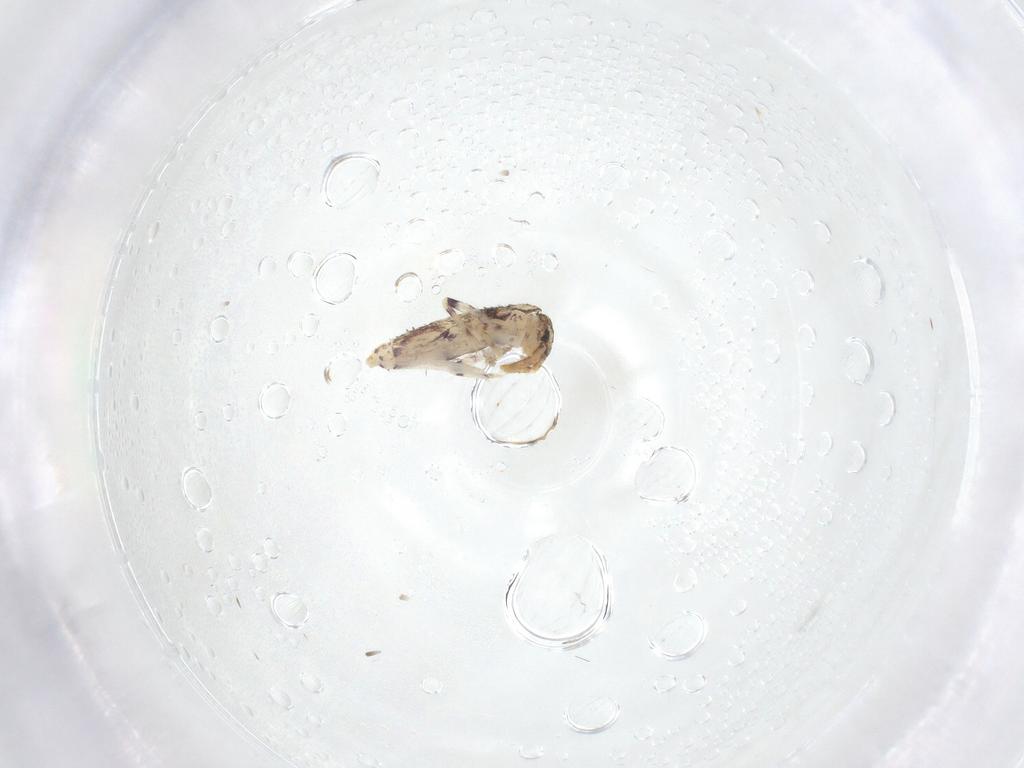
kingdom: Animalia
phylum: Arthropoda
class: Collembola
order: Entomobryomorpha
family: Entomobryidae
